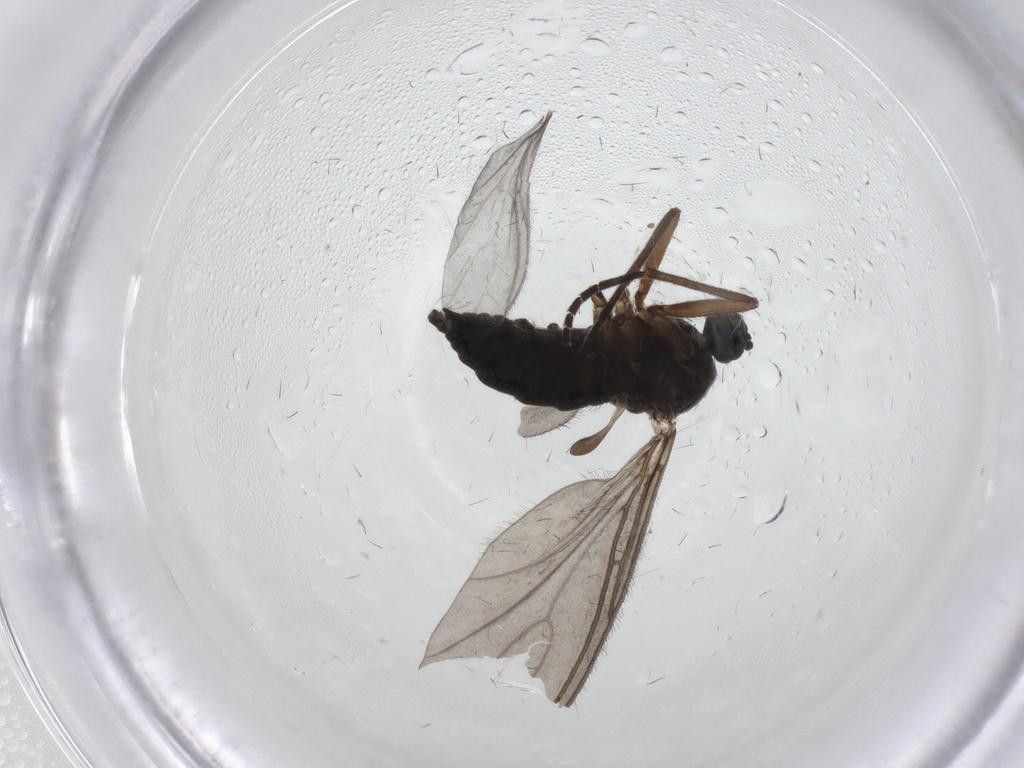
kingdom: Animalia
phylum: Arthropoda
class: Insecta
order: Diptera
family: Sciaridae
